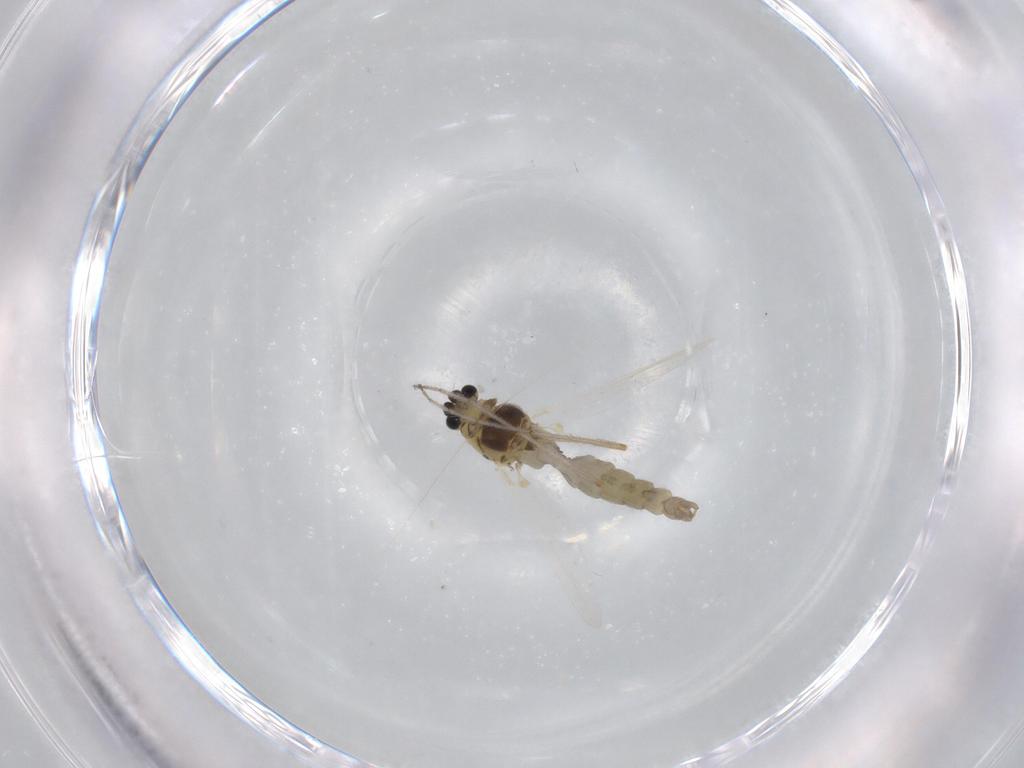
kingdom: Animalia
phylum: Arthropoda
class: Insecta
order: Diptera
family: Chironomidae
